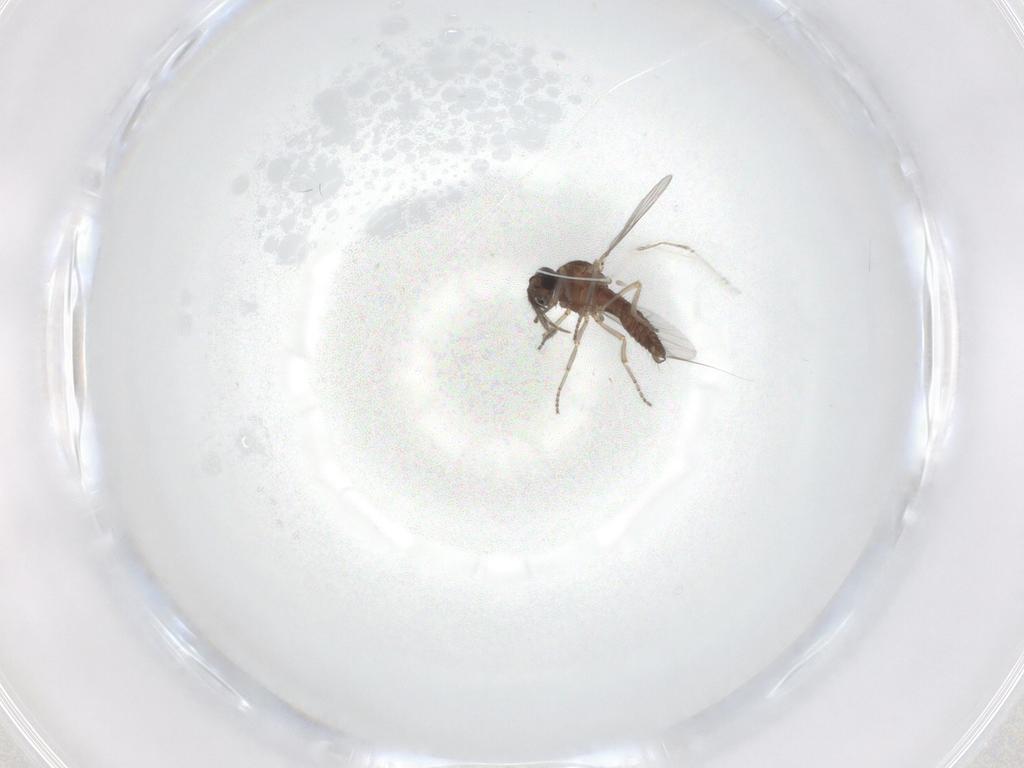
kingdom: Animalia
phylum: Arthropoda
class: Insecta
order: Diptera
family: Ceratopogonidae
